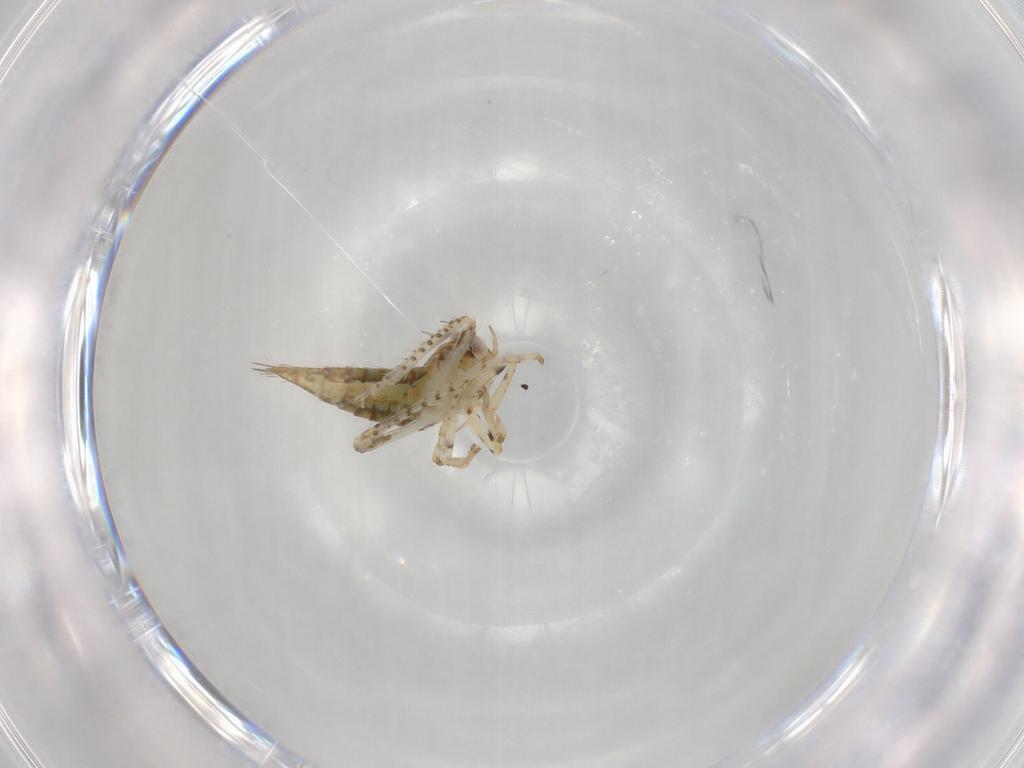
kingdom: Animalia
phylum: Arthropoda
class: Insecta
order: Hemiptera
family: Cicadellidae
